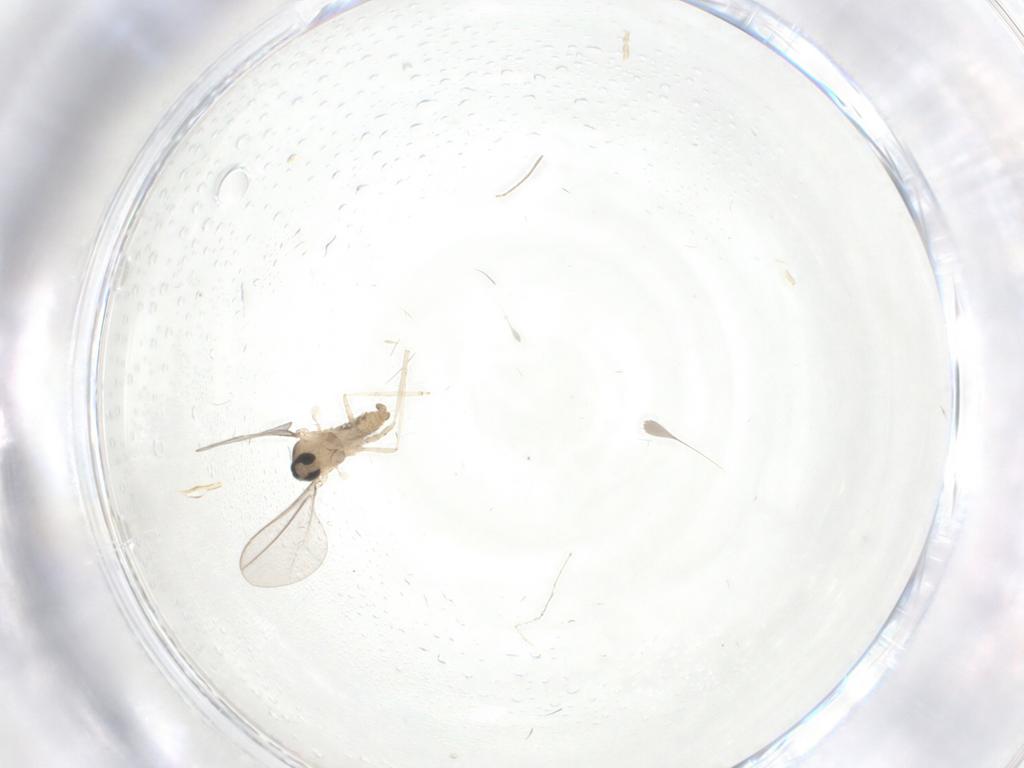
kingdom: Animalia
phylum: Arthropoda
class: Insecta
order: Diptera
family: Chironomidae
